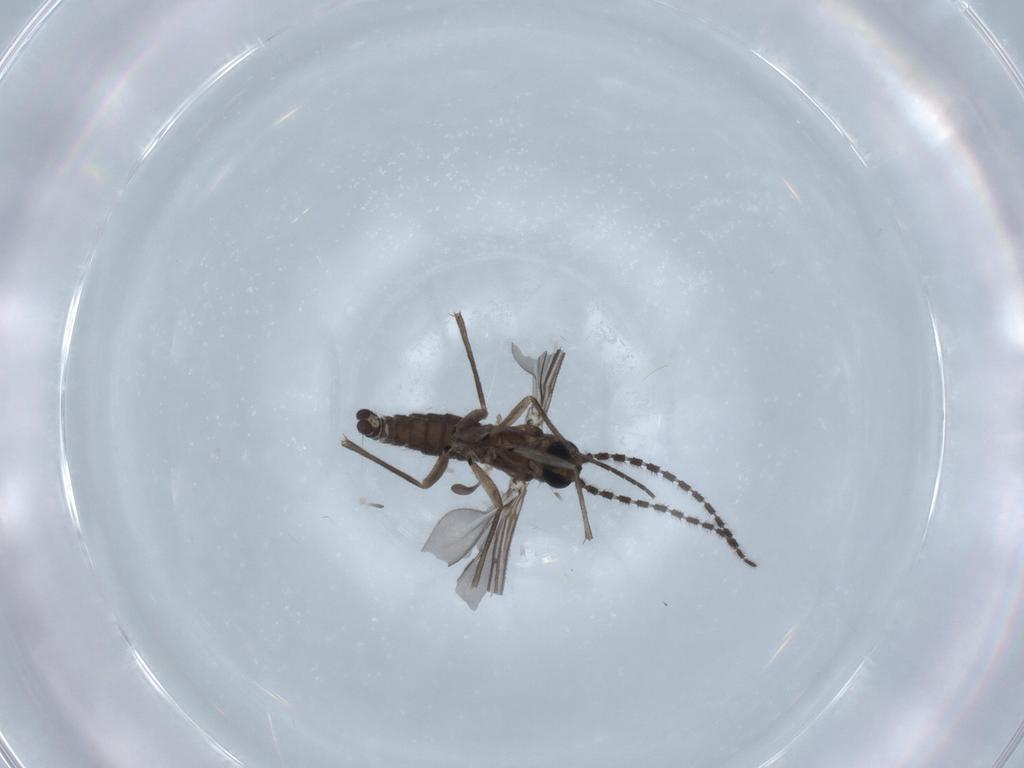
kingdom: Animalia
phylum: Arthropoda
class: Insecta
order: Diptera
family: Sciaridae
